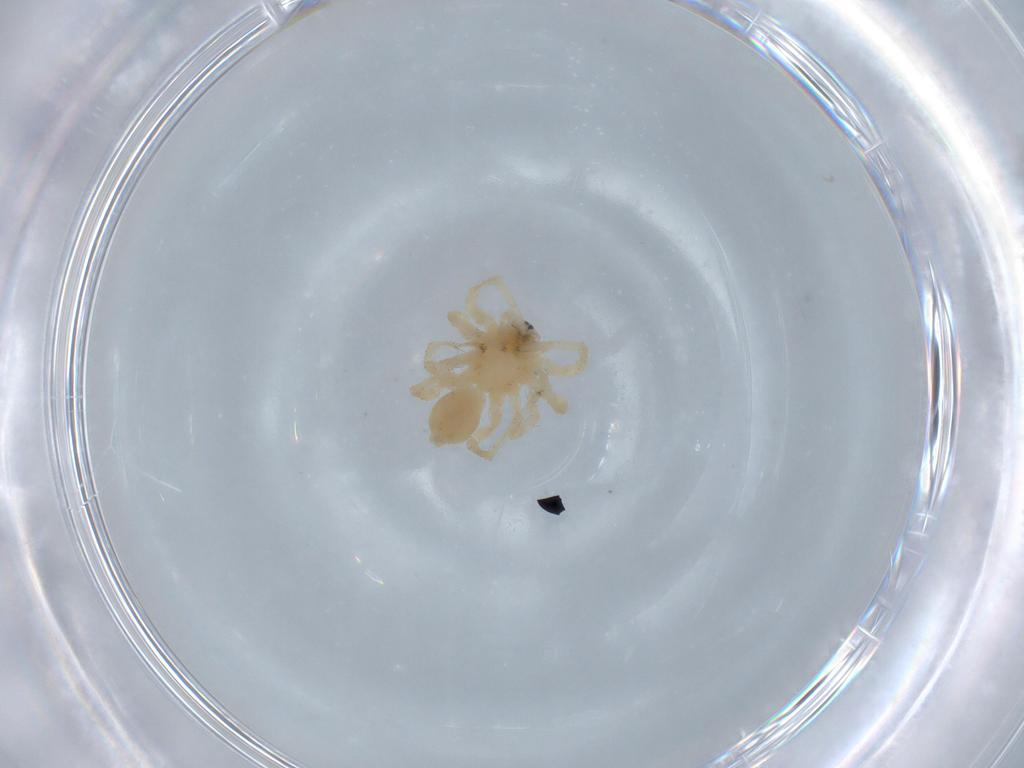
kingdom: Animalia
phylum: Arthropoda
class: Arachnida
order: Araneae
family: Anyphaenidae
